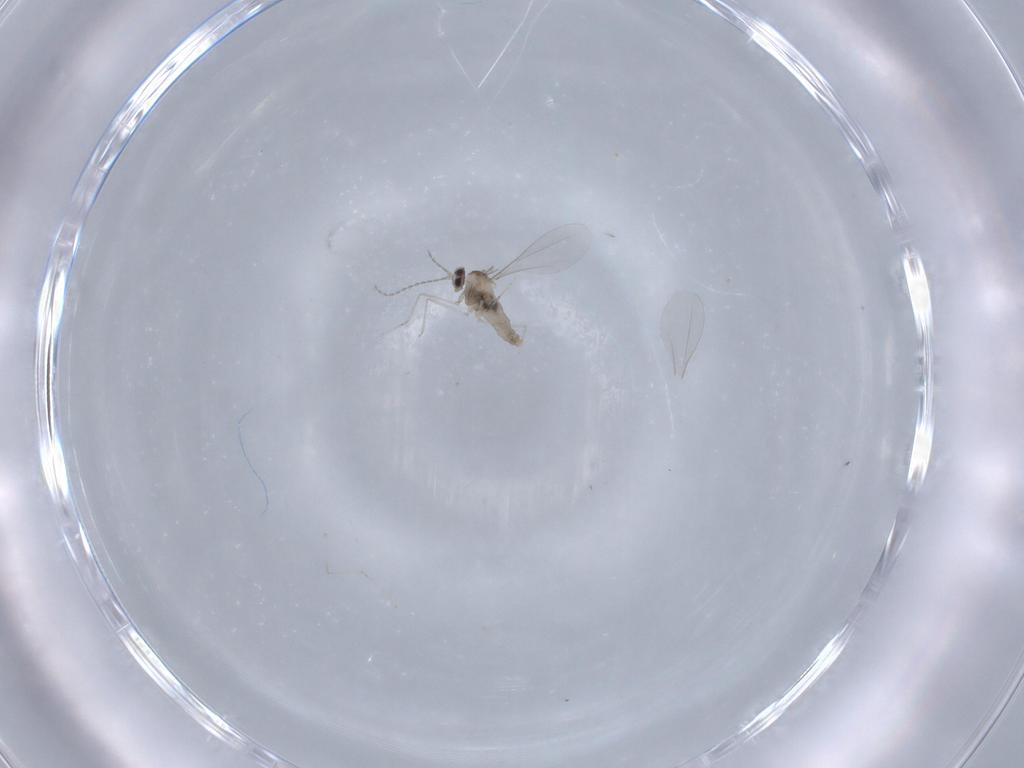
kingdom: Animalia
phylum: Arthropoda
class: Insecta
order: Diptera
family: Cecidomyiidae
